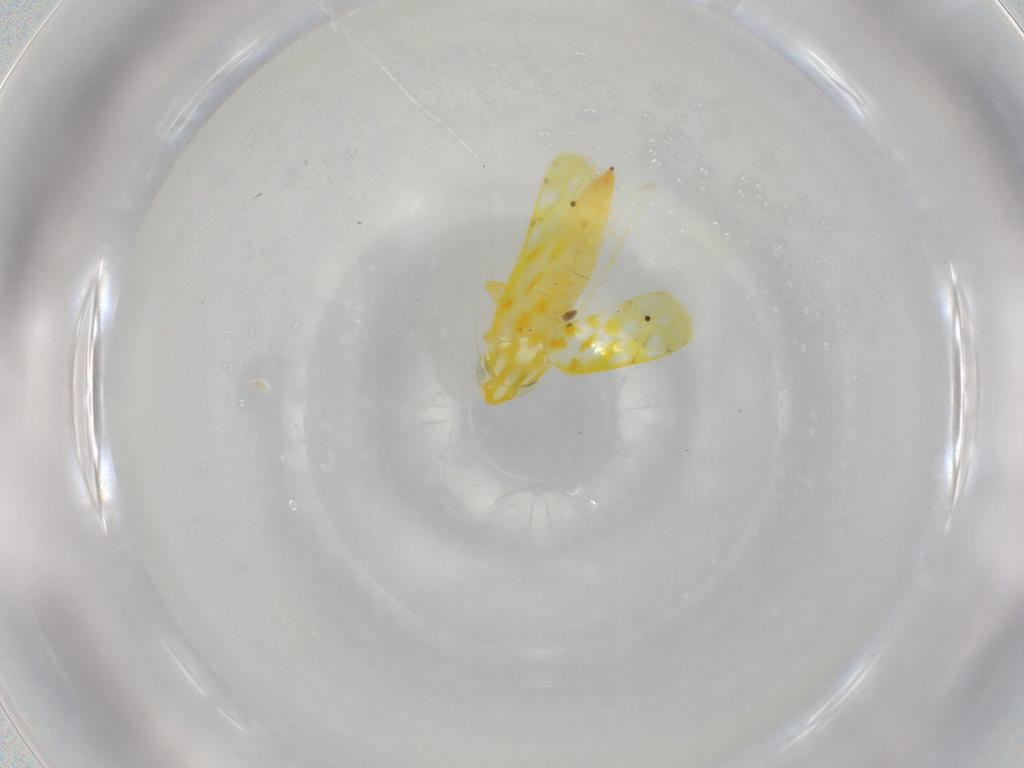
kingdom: Animalia
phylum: Arthropoda
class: Insecta
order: Hemiptera
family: Cicadellidae
